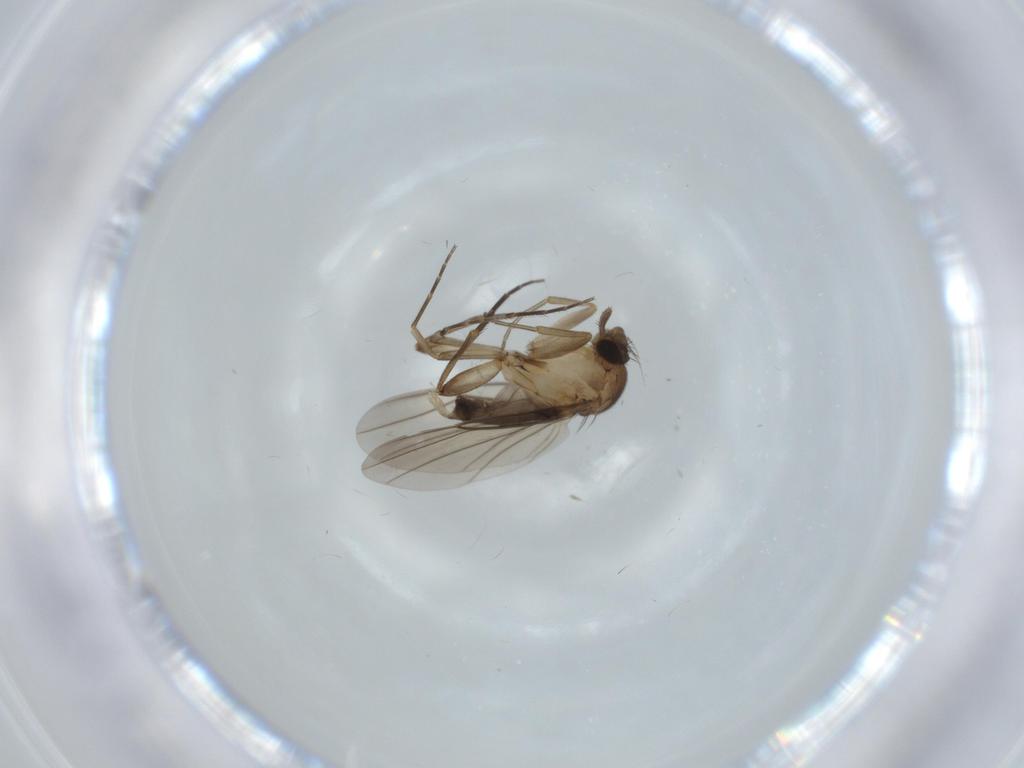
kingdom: Animalia
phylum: Arthropoda
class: Insecta
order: Diptera
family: Phoridae
